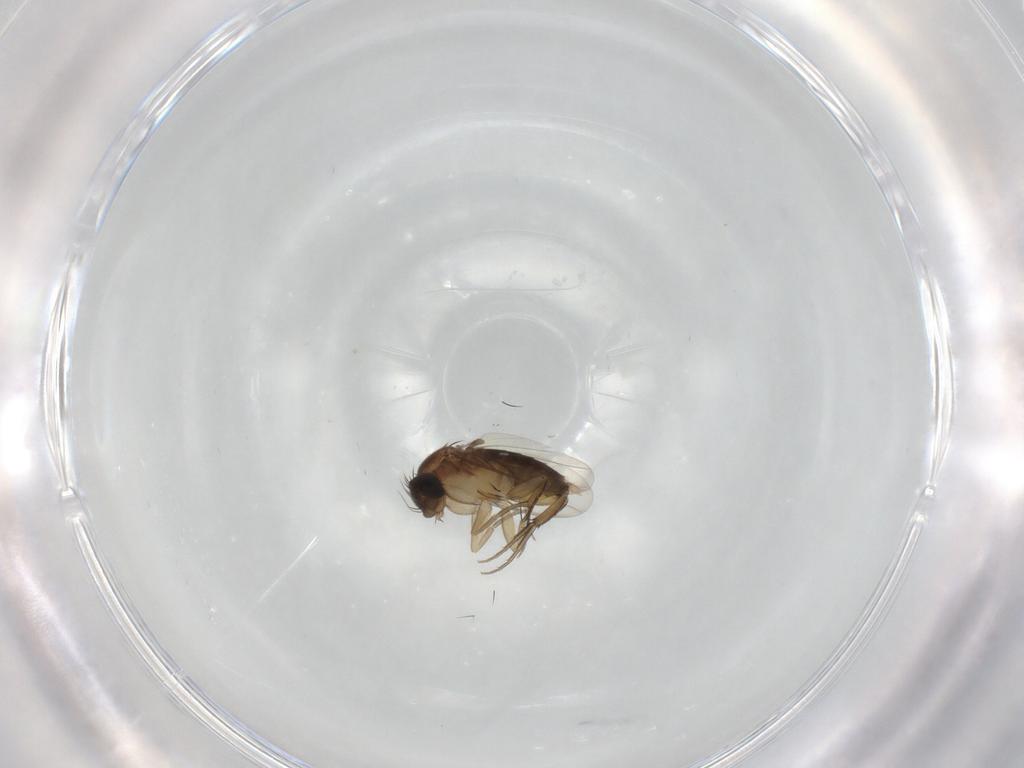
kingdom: Animalia
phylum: Arthropoda
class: Insecta
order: Diptera
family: Phoridae
